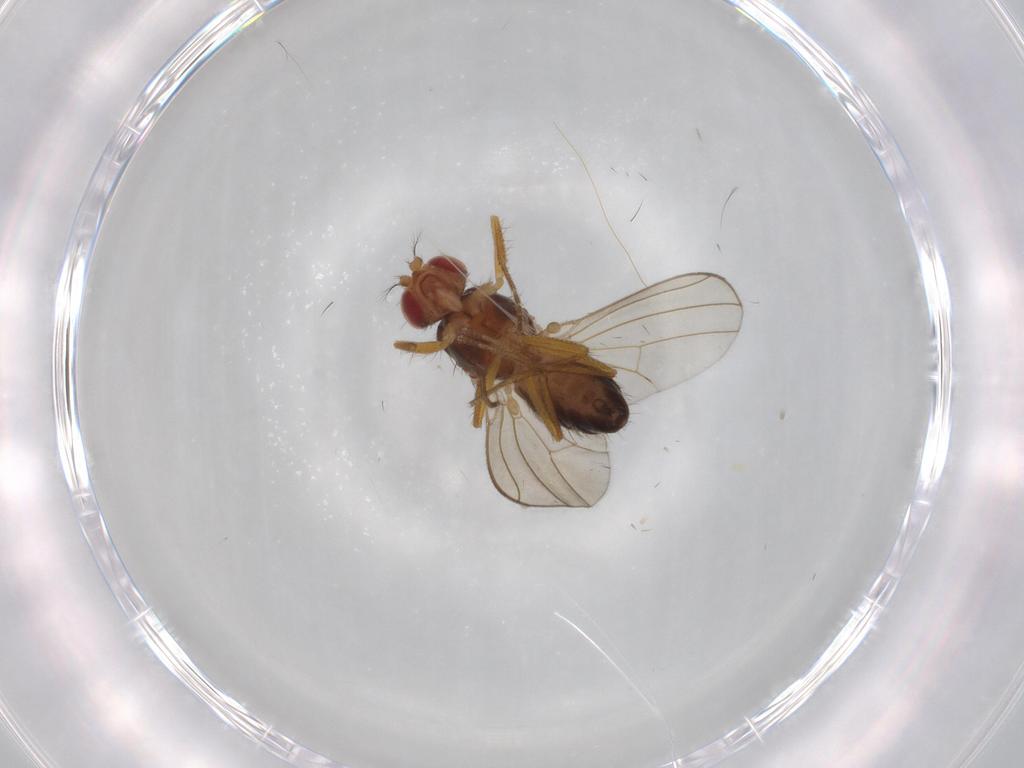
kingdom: Animalia
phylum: Arthropoda
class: Insecta
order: Diptera
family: Drosophilidae
